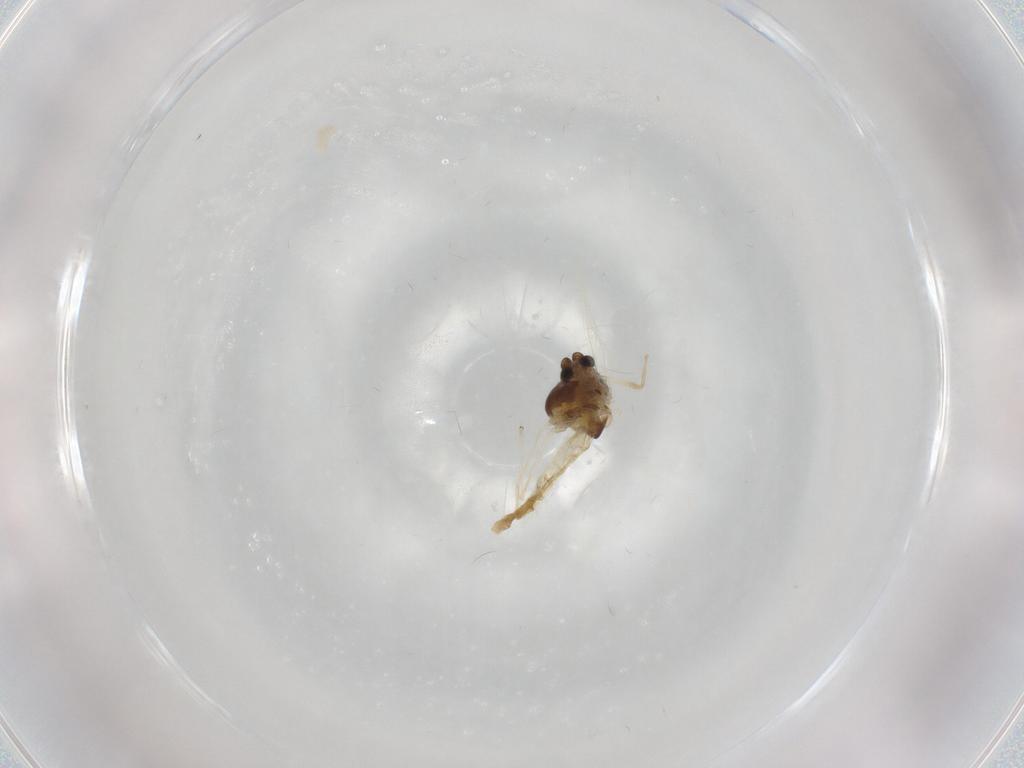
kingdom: Animalia
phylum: Arthropoda
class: Insecta
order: Diptera
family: Chironomidae
